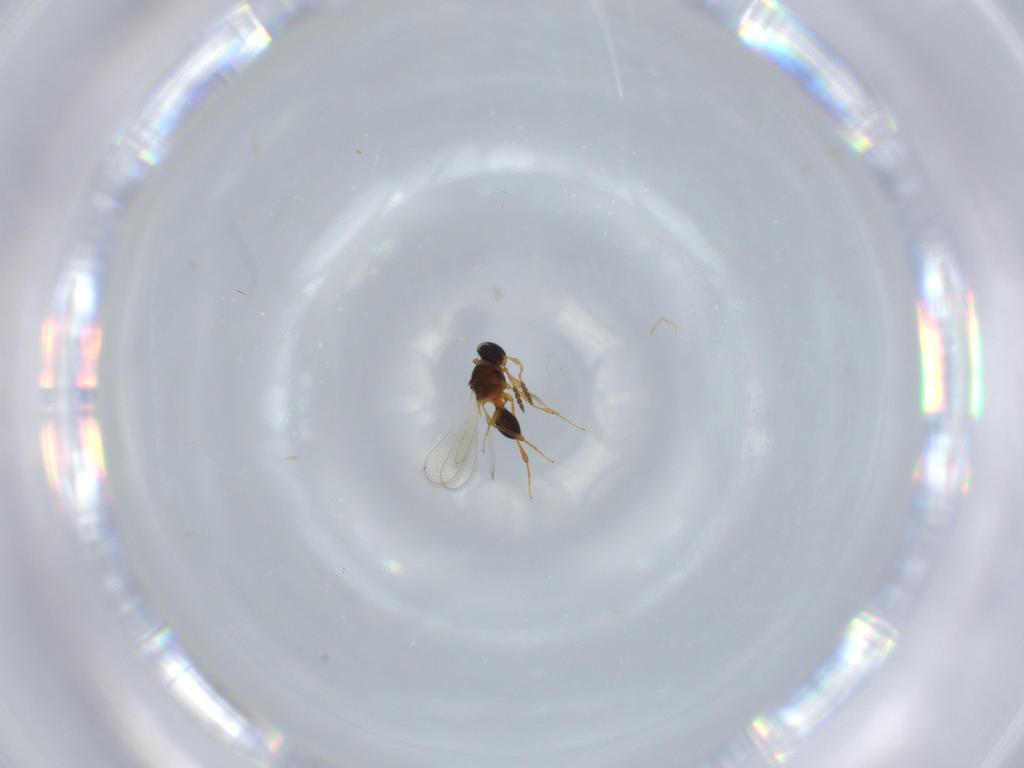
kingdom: Animalia
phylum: Arthropoda
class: Insecta
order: Hymenoptera
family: Platygastridae
